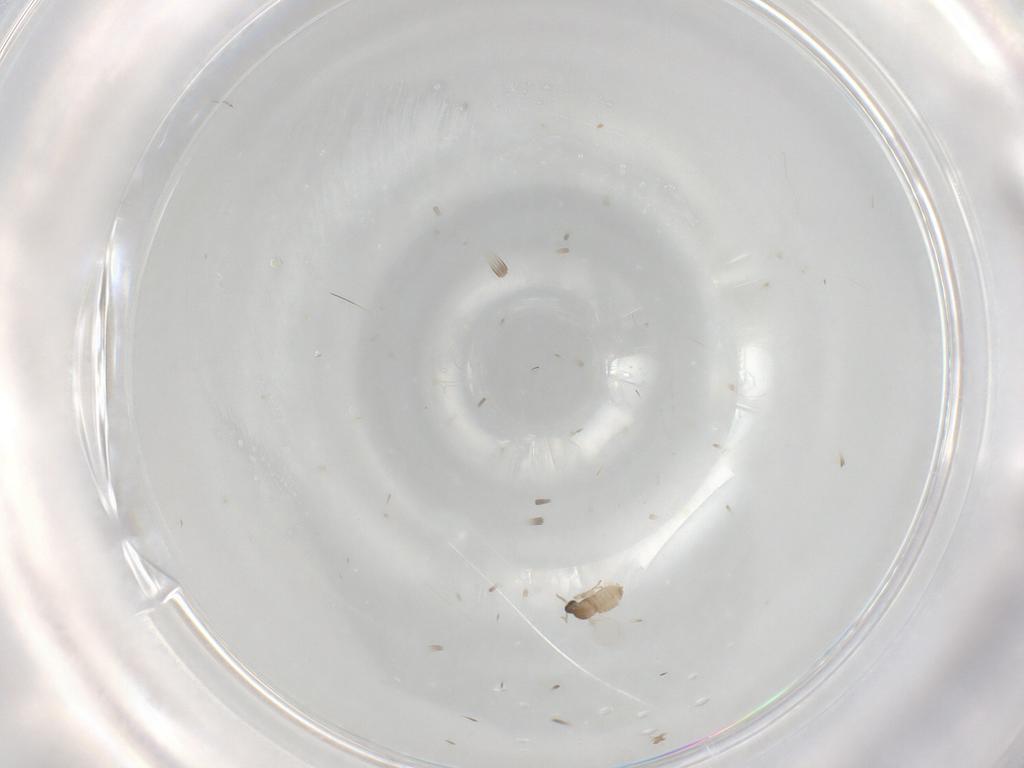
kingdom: Animalia
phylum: Arthropoda
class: Insecta
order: Diptera
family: Cecidomyiidae
